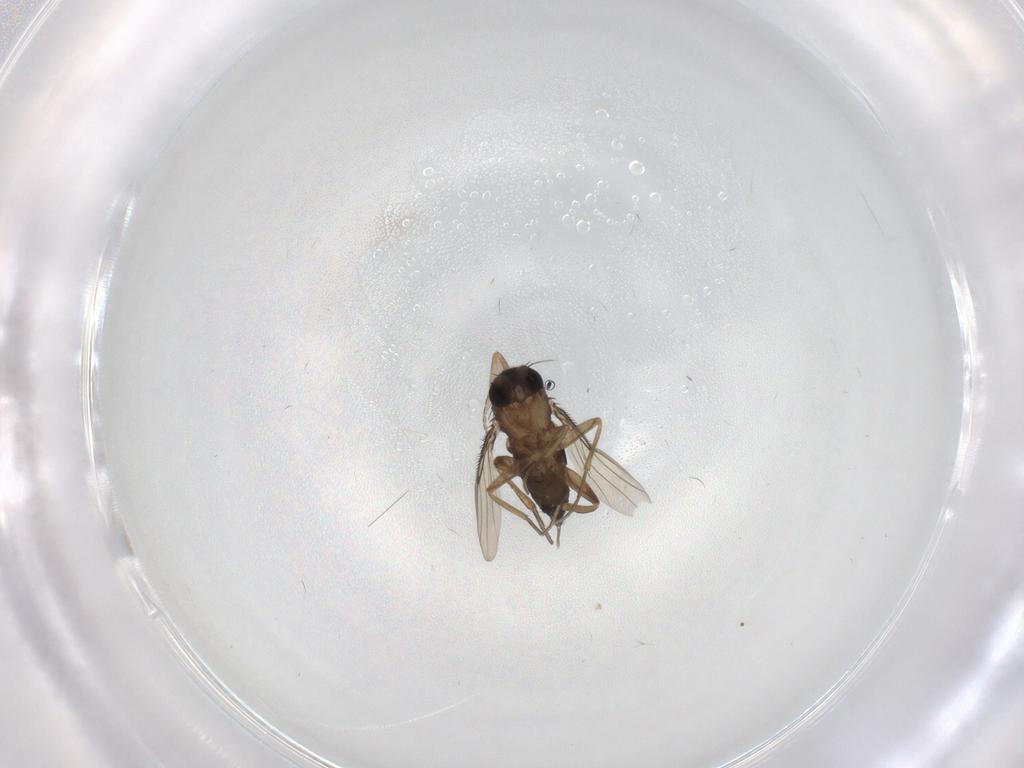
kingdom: Animalia
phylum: Arthropoda
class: Insecta
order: Diptera
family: Phoridae
